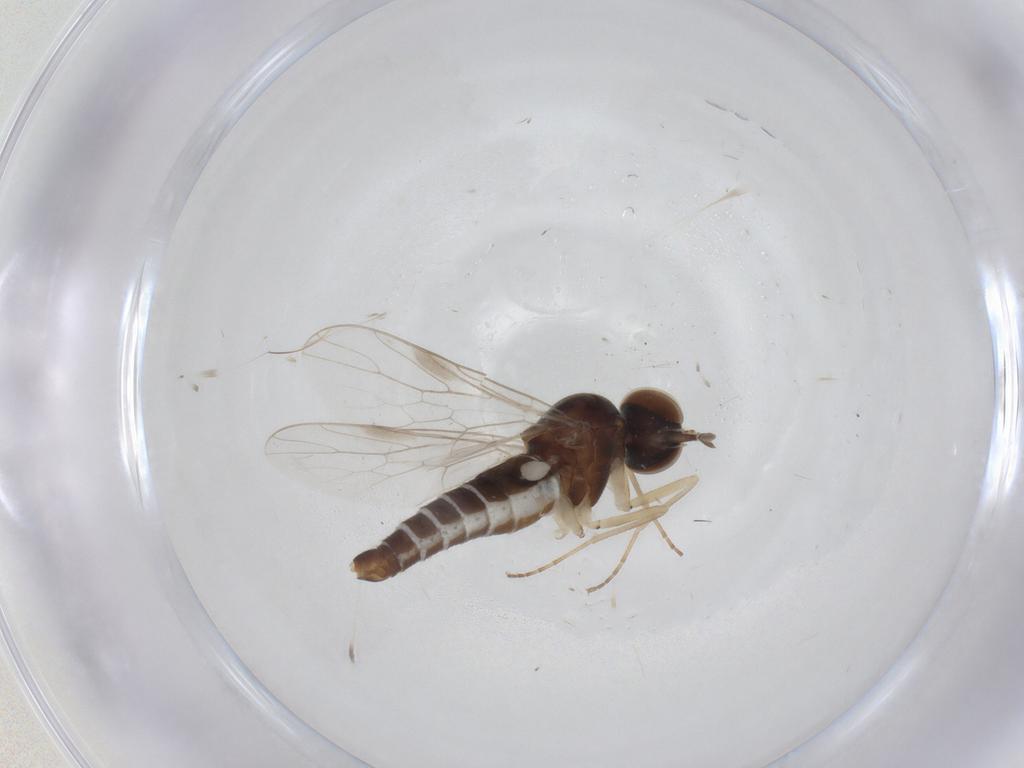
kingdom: Animalia
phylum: Arthropoda
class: Insecta
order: Diptera
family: Scenopinidae
